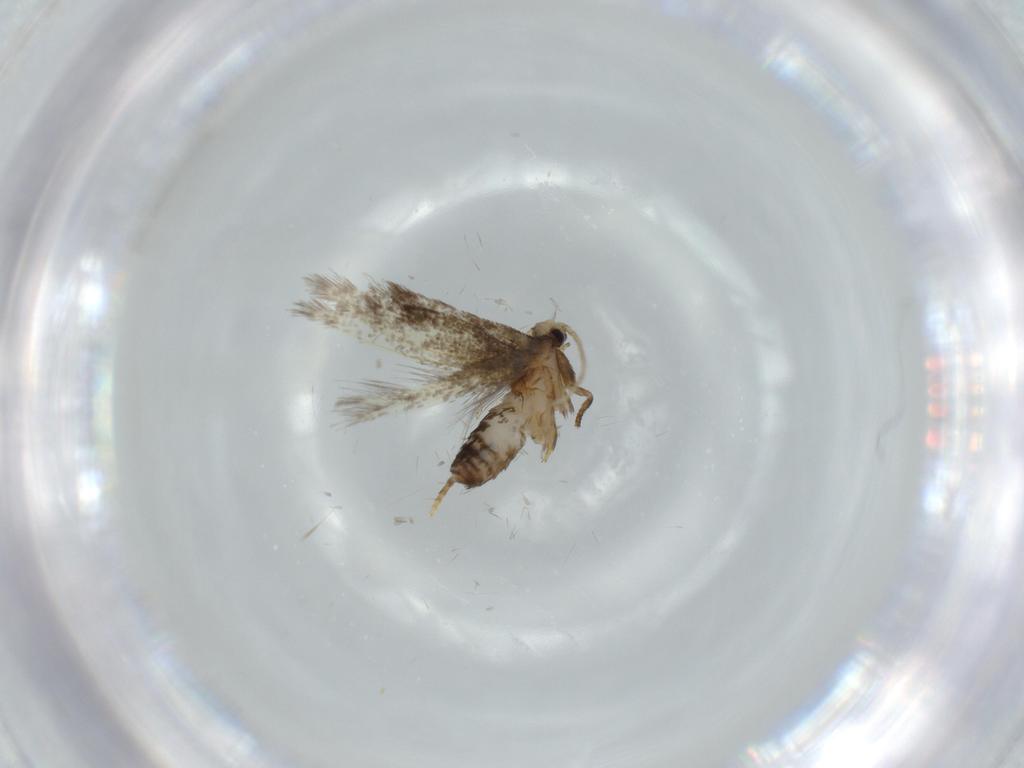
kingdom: Animalia
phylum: Arthropoda
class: Insecta
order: Lepidoptera
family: Nepticulidae
